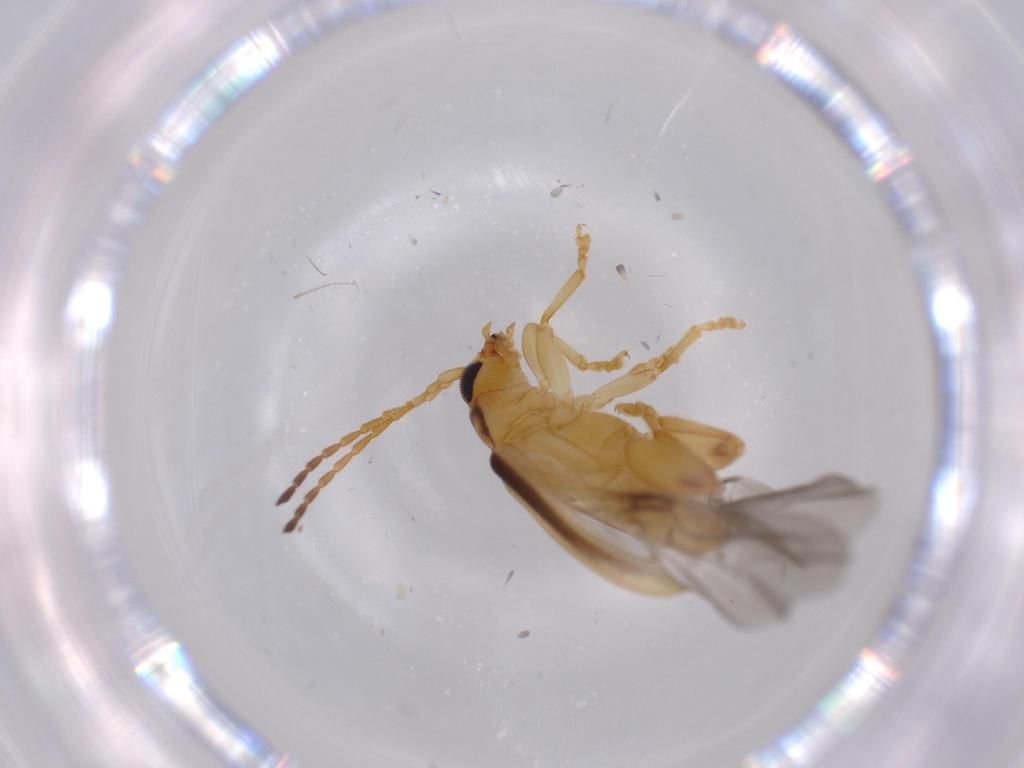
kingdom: Animalia
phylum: Arthropoda
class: Insecta
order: Coleoptera
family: Chrysomelidae
